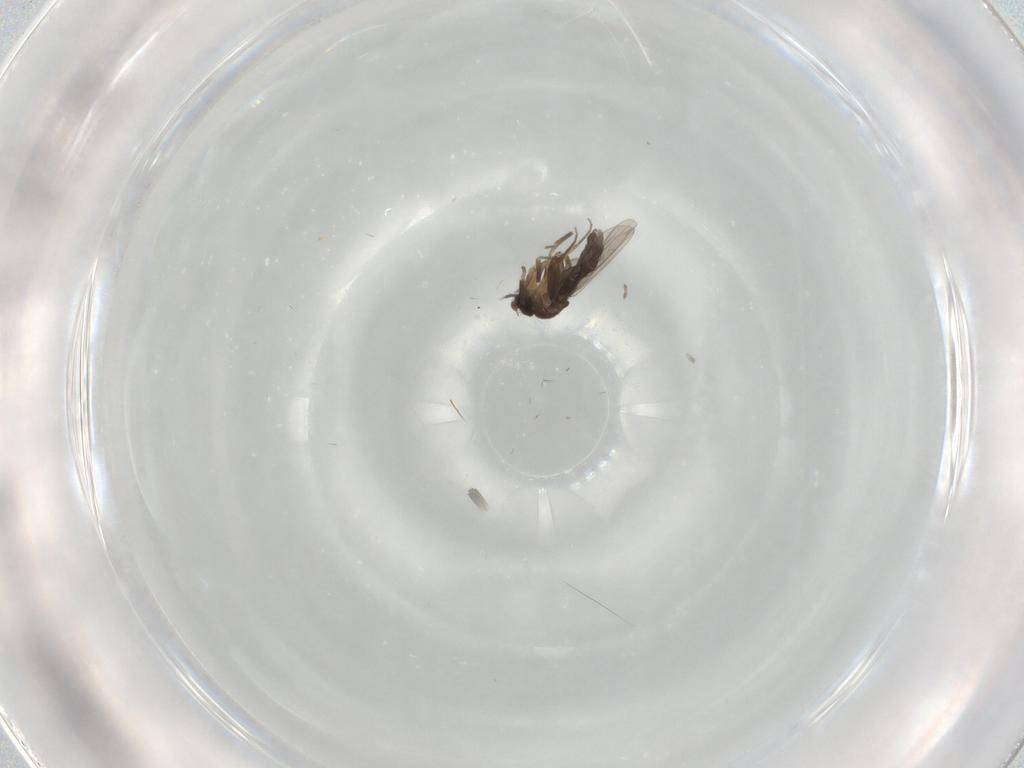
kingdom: Animalia
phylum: Arthropoda
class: Insecta
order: Diptera
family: Phoridae
